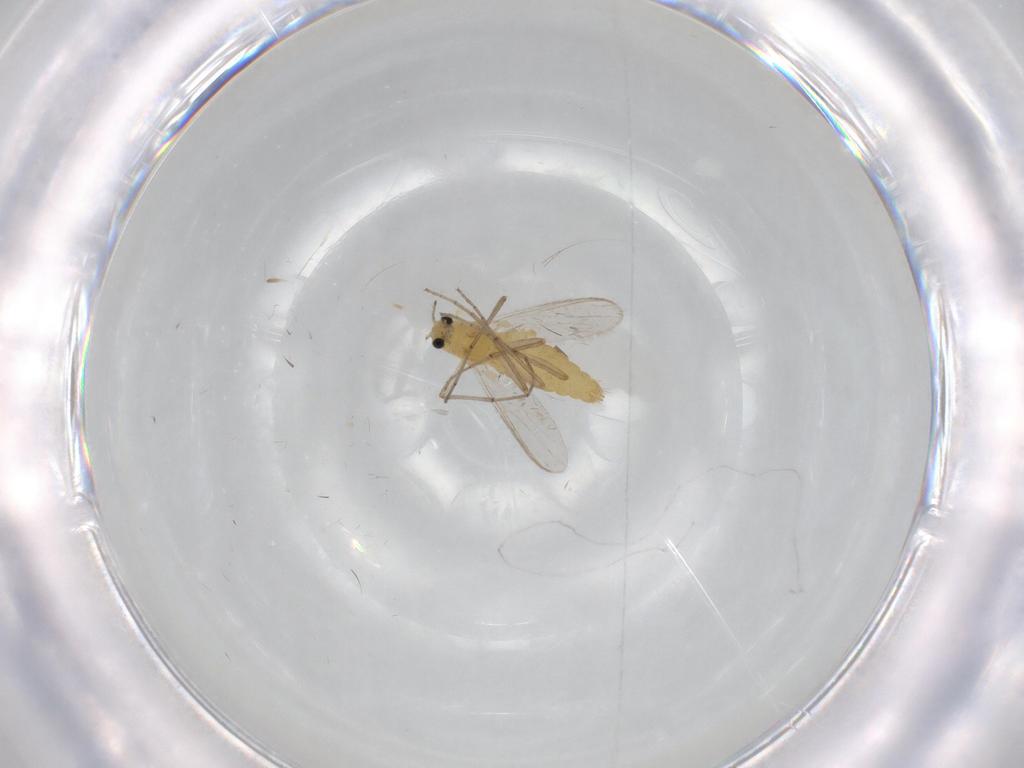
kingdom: Animalia
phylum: Arthropoda
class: Insecta
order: Diptera
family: Chironomidae
